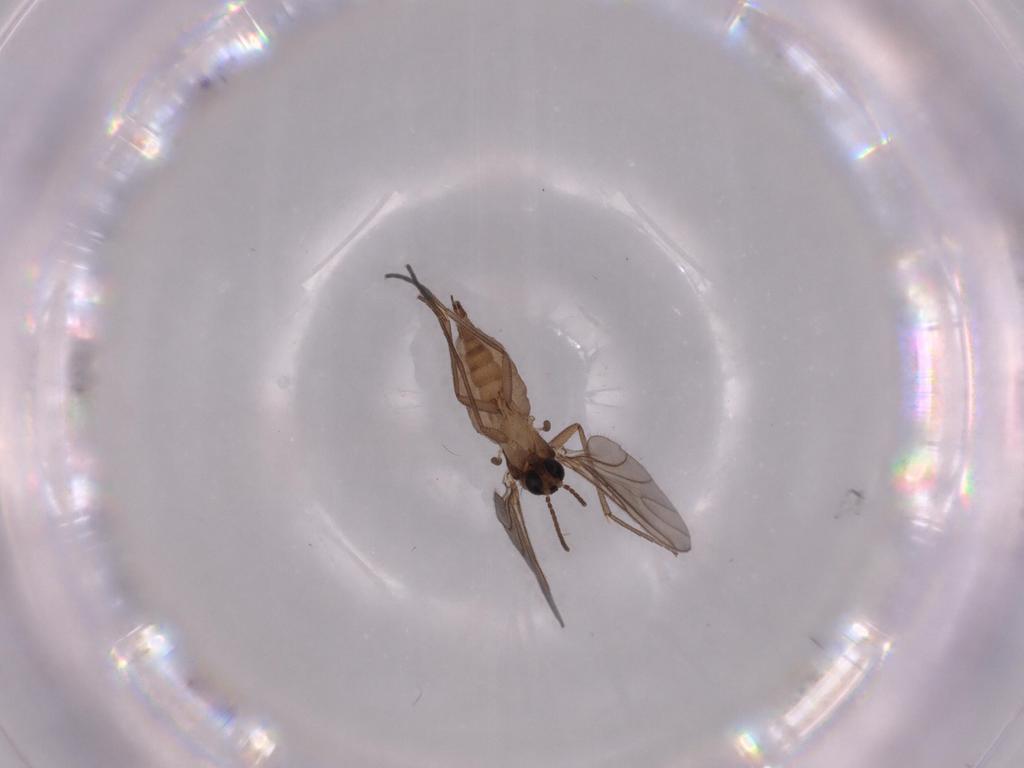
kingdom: Animalia
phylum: Arthropoda
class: Insecta
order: Diptera
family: Sciaridae
